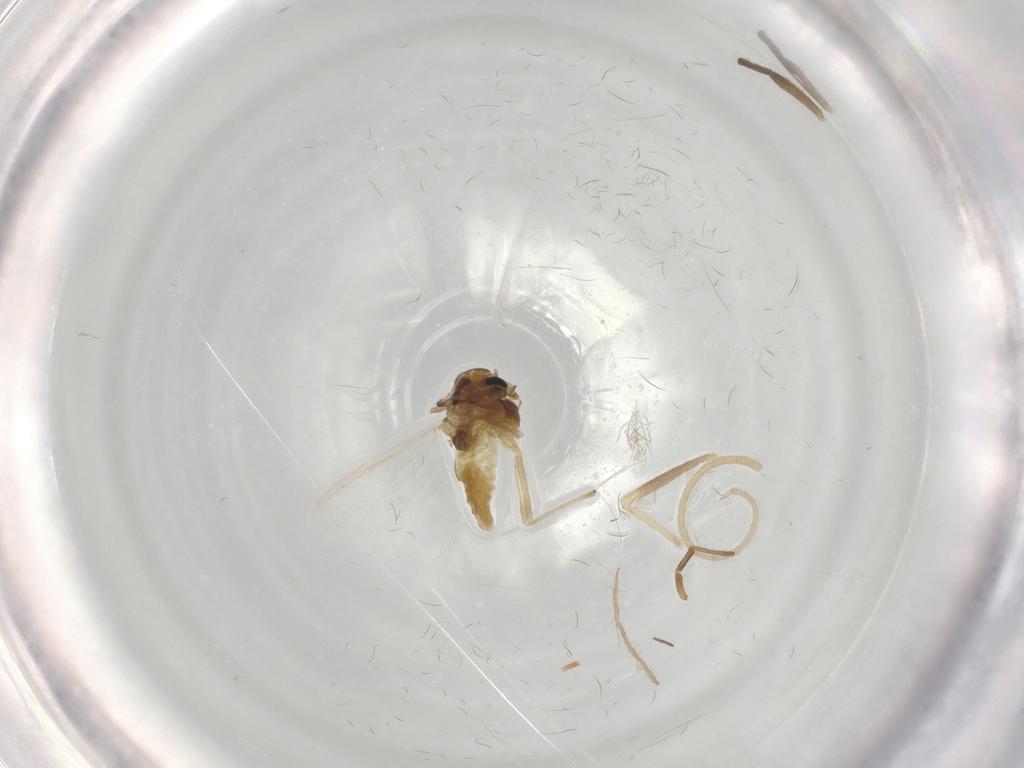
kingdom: Animalia
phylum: Arthropoda
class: Insecta
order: Diptera
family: Chironomidae
